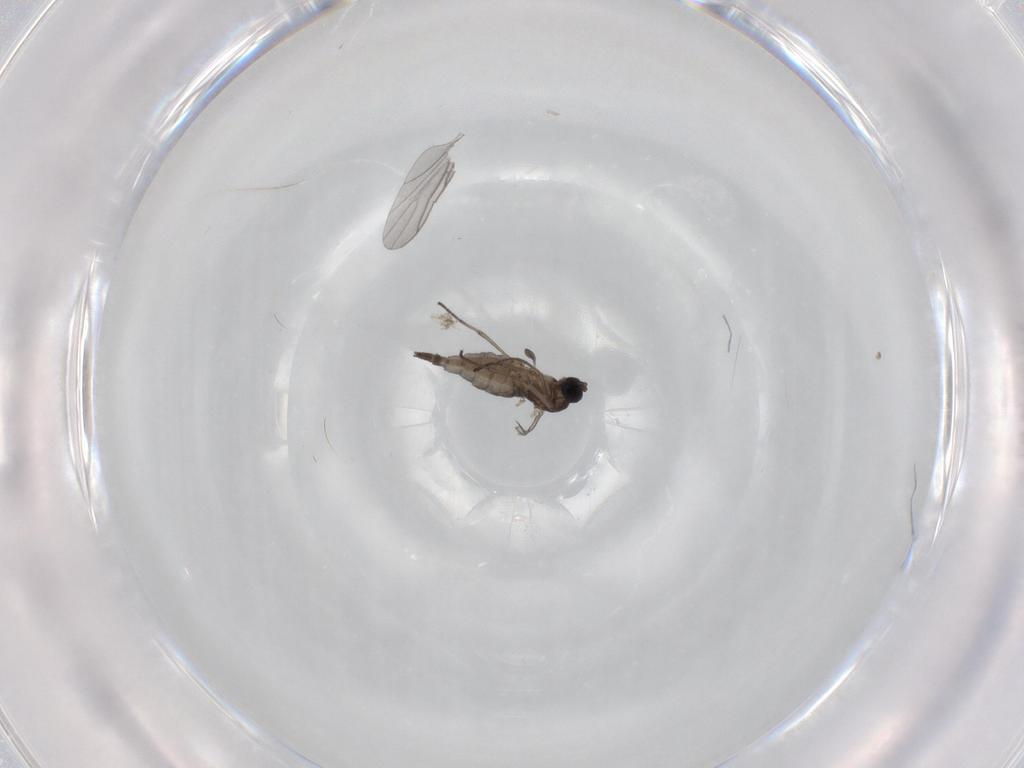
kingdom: Animalia
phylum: Arthropoda
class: Insecta
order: Diptera
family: Sciaridae
